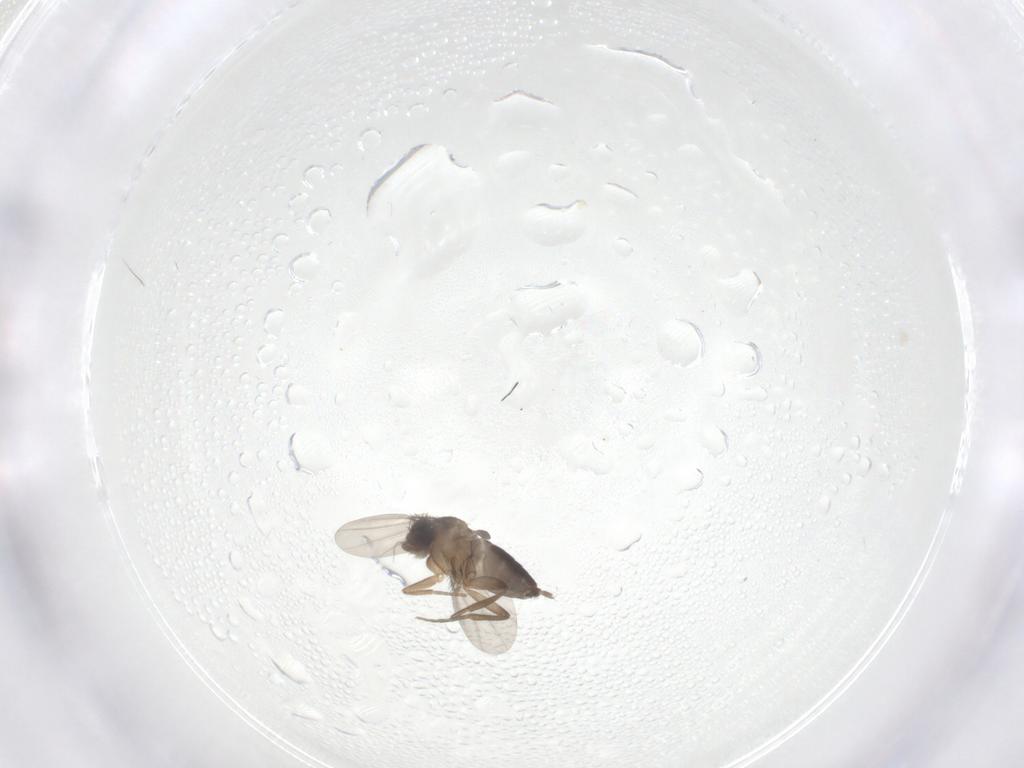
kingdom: Animalia
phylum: Arthropoda
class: Insecta
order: Diptera
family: Phoridae
